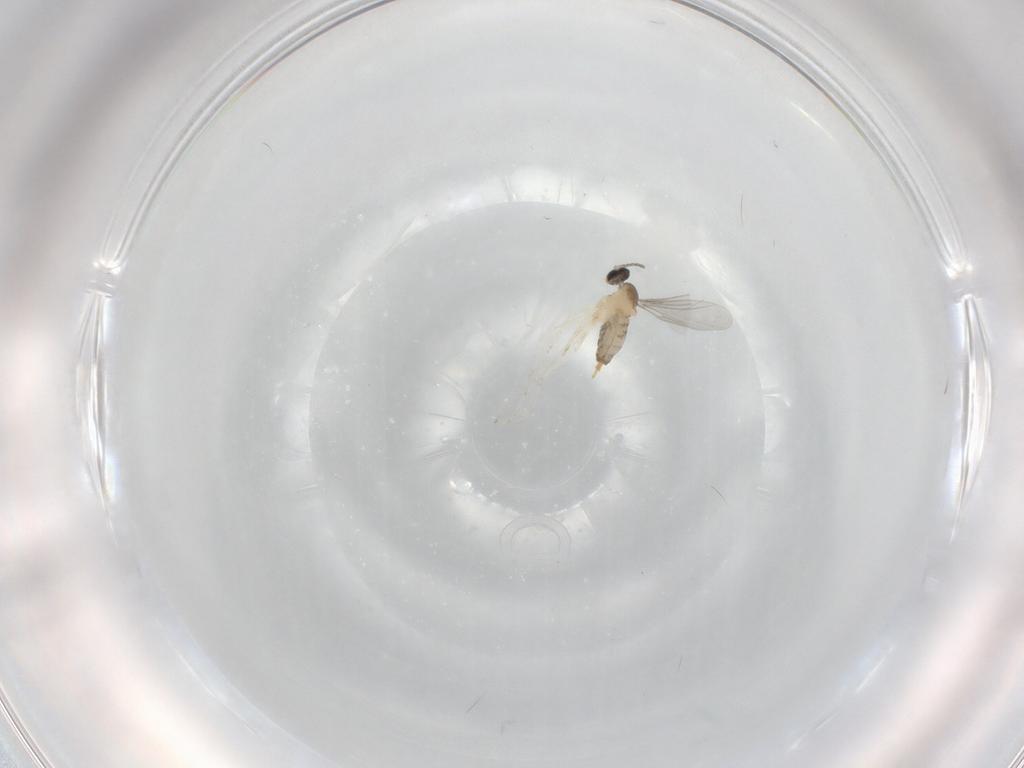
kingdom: Animalia
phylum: Arthropoda
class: Insecta
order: Diptera
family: Cecidomyiidae
